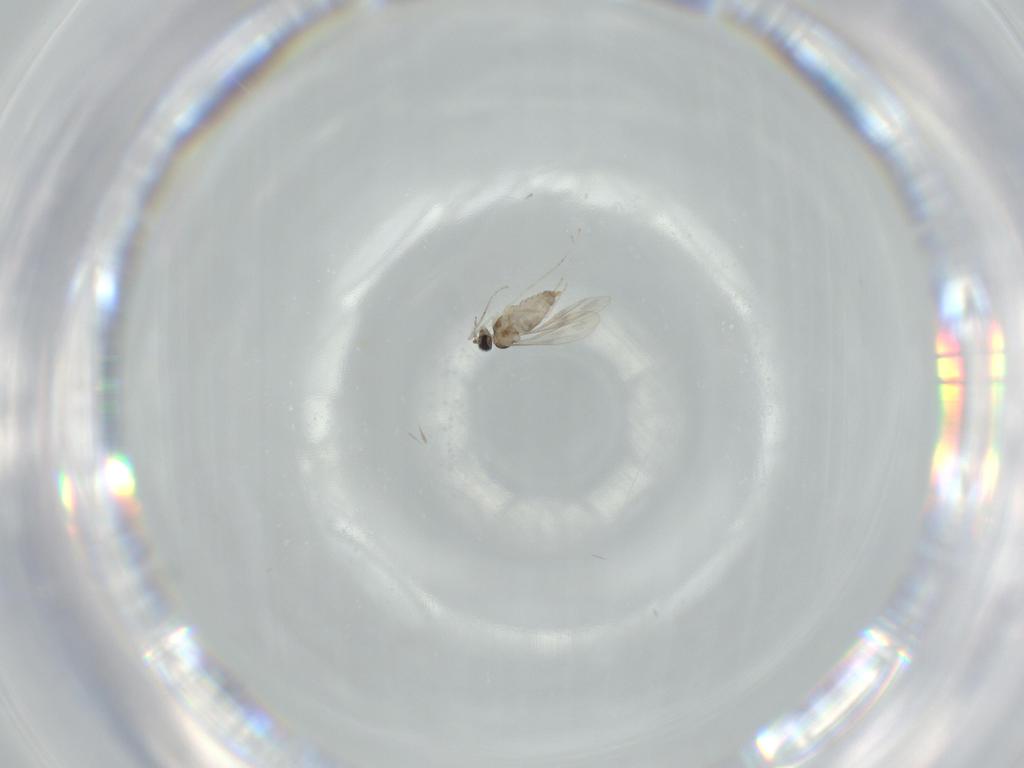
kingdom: Animalia
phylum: Arthropoda
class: Insecta
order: Diptera
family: Cecidomyiidae
